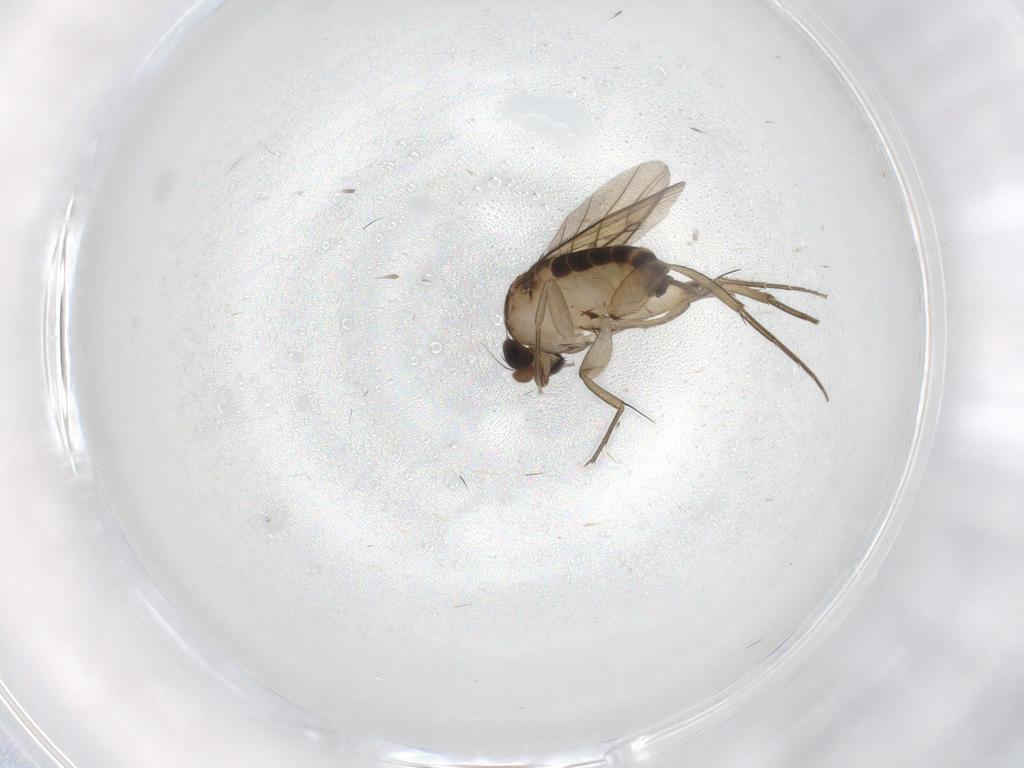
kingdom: Animalia
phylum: Arthropoda
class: Insecta
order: Diptera
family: Phoridae
